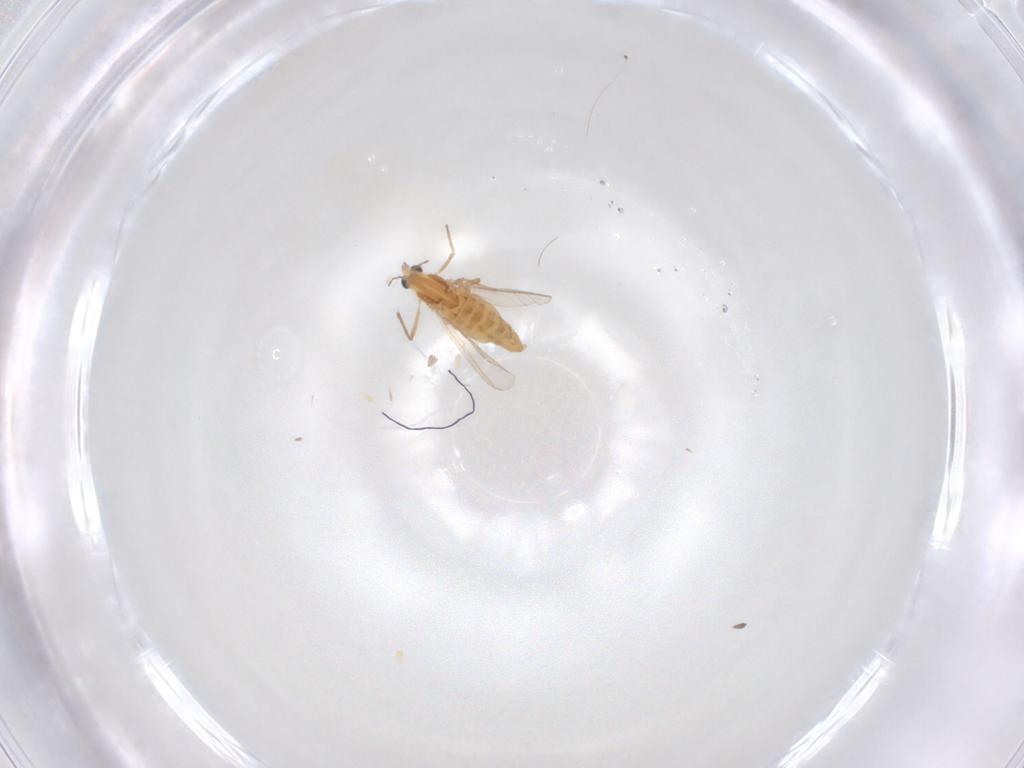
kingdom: Animalia
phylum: Arthropoda
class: Insecta
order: Diptera
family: Chironomidae
